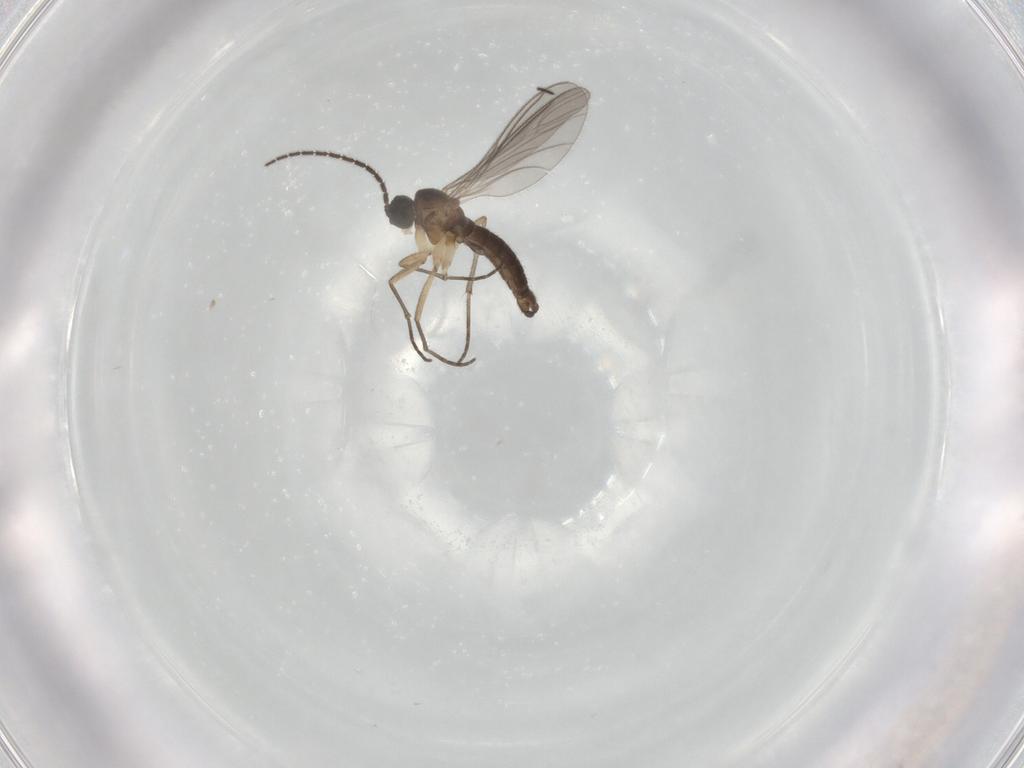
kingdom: Animalia
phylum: Arthropoda
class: Insecta
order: Diptera
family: Sciaridae
